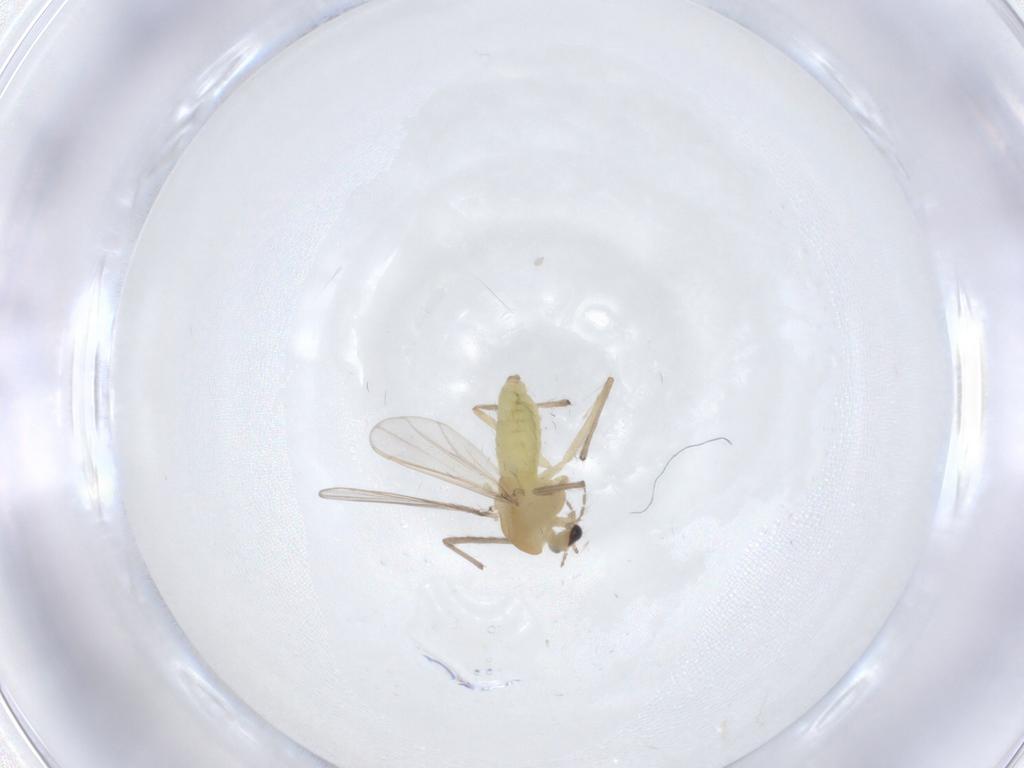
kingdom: Animalia
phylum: Arthropoda
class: Insecta
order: Diptera
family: Chironomidae
